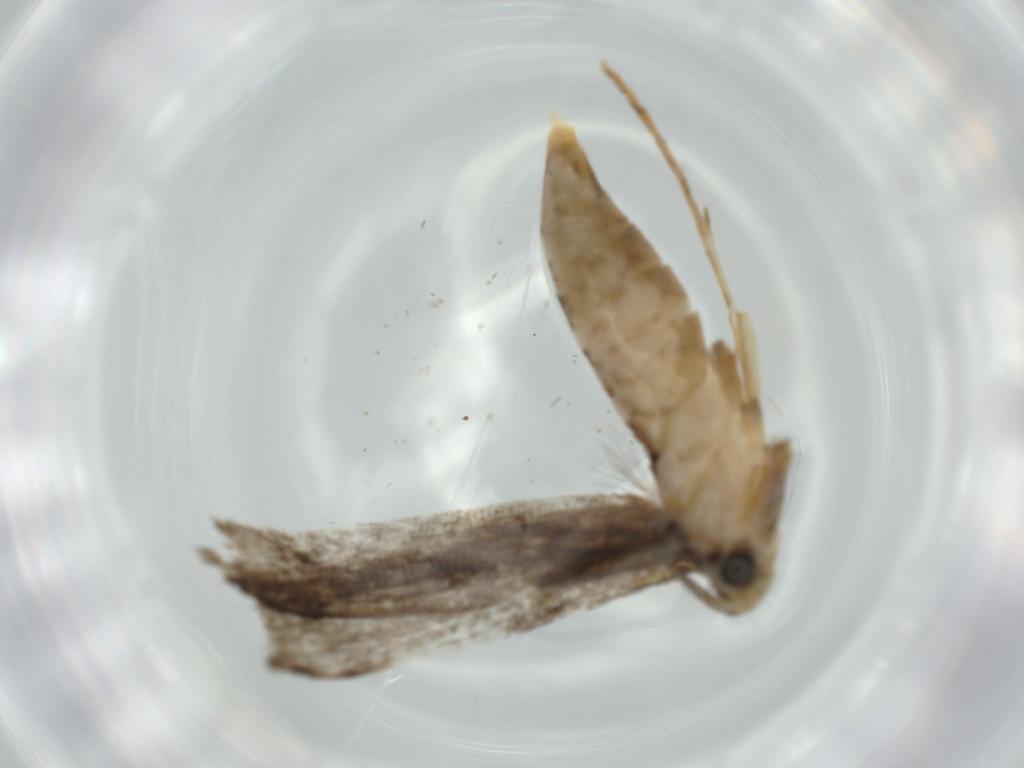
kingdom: Animalia
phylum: Arthropoda
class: Insecta
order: Lepidoptera
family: Tineidae
